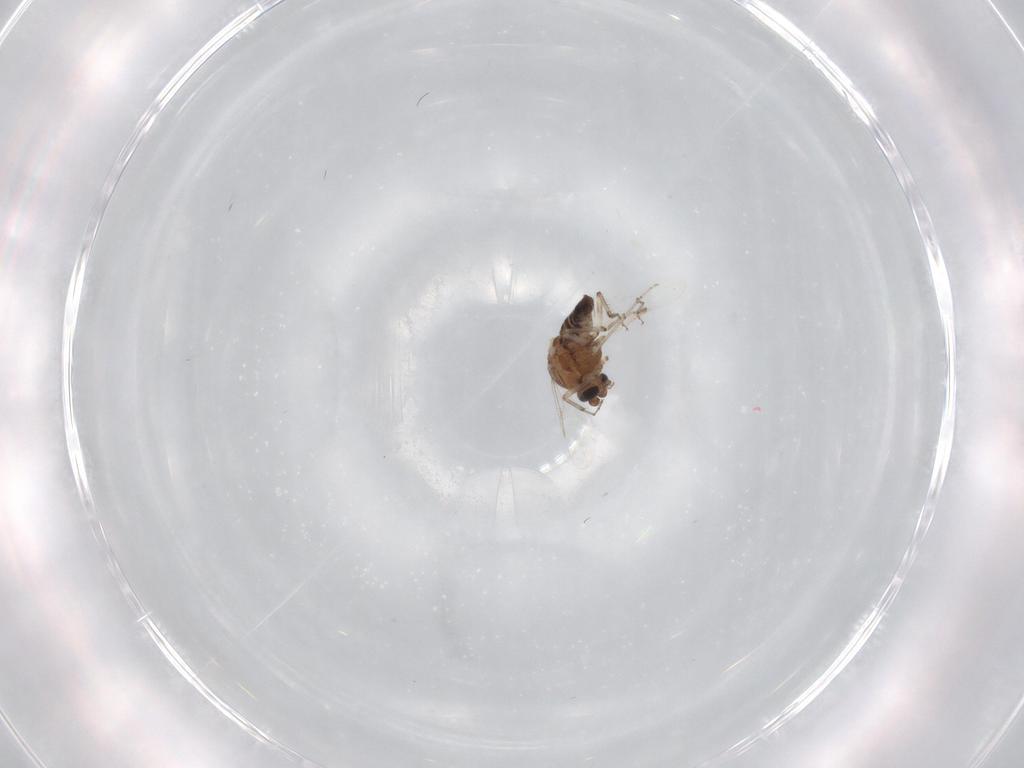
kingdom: Animalia
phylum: Arthropoda
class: Insecta
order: Diptera
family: Ceratopogonidae
